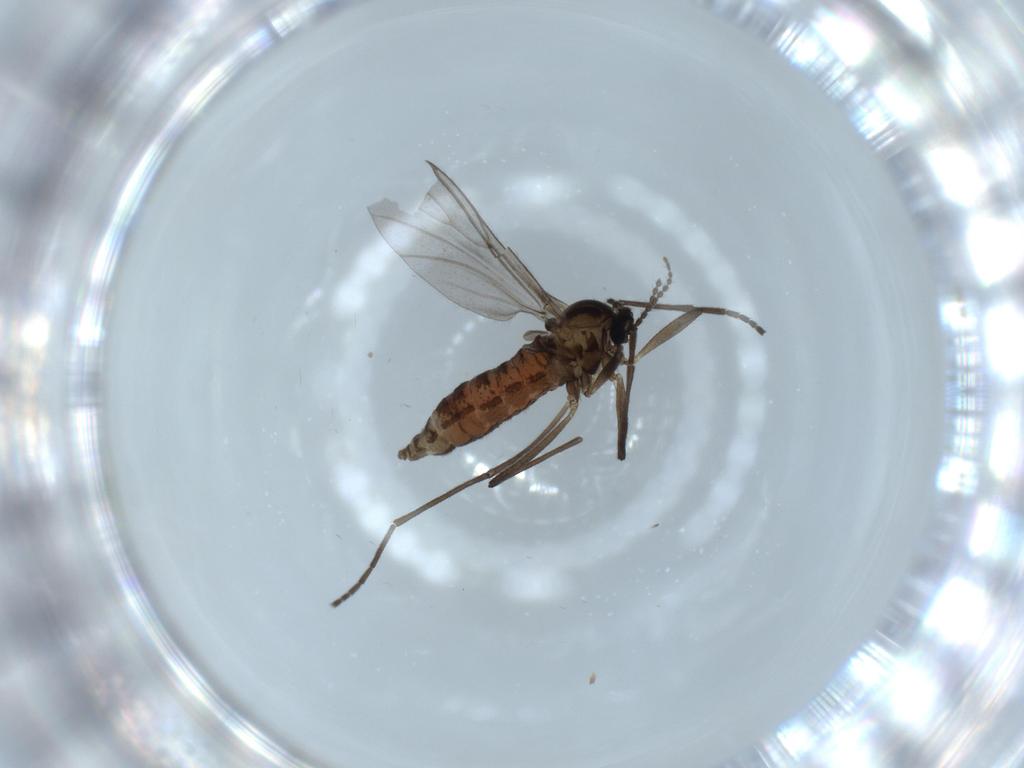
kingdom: Animalia
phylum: Arthropoda
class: Insecta
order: Diptera
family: Cecidomyiidae
